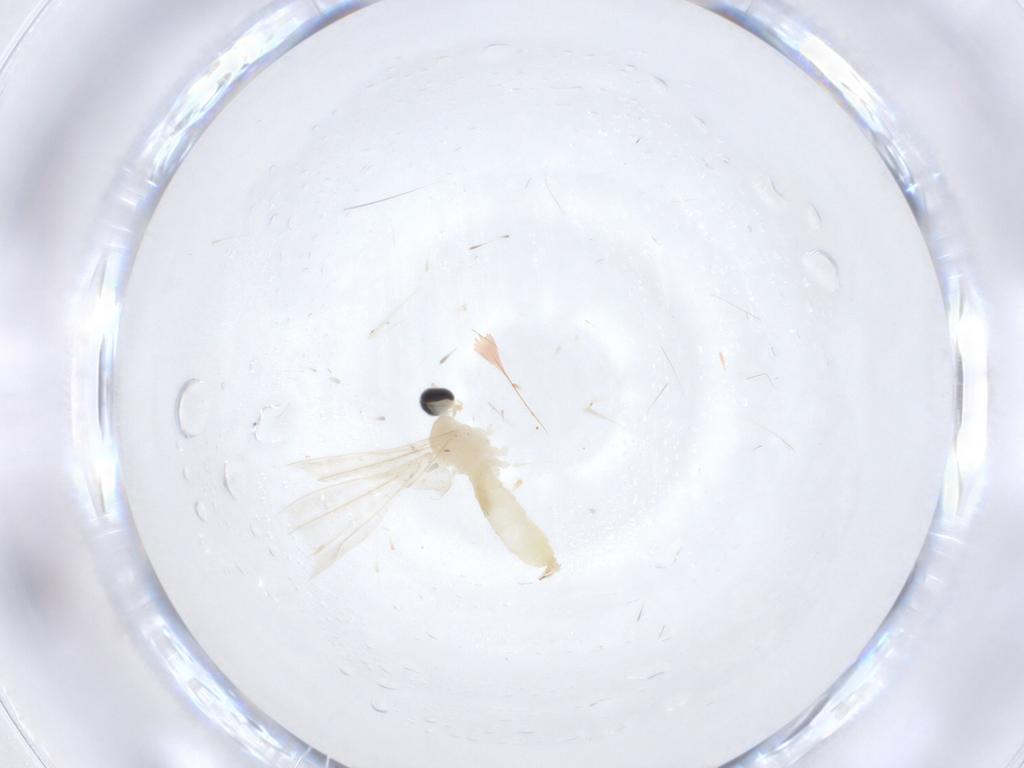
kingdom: Animalia
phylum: Arthropoda
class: Insecta
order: Diptera
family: Cecidomyiidae
